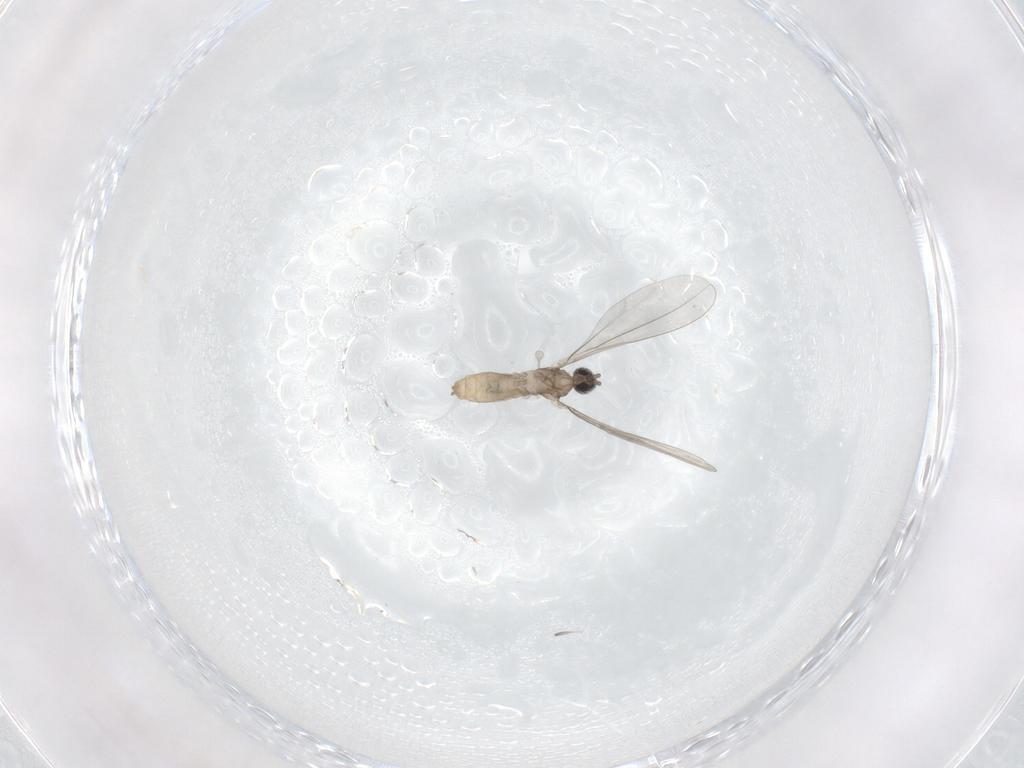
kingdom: Animalia
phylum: Arthropoda
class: Insecta
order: Diptera
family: Cecidomyiidae
